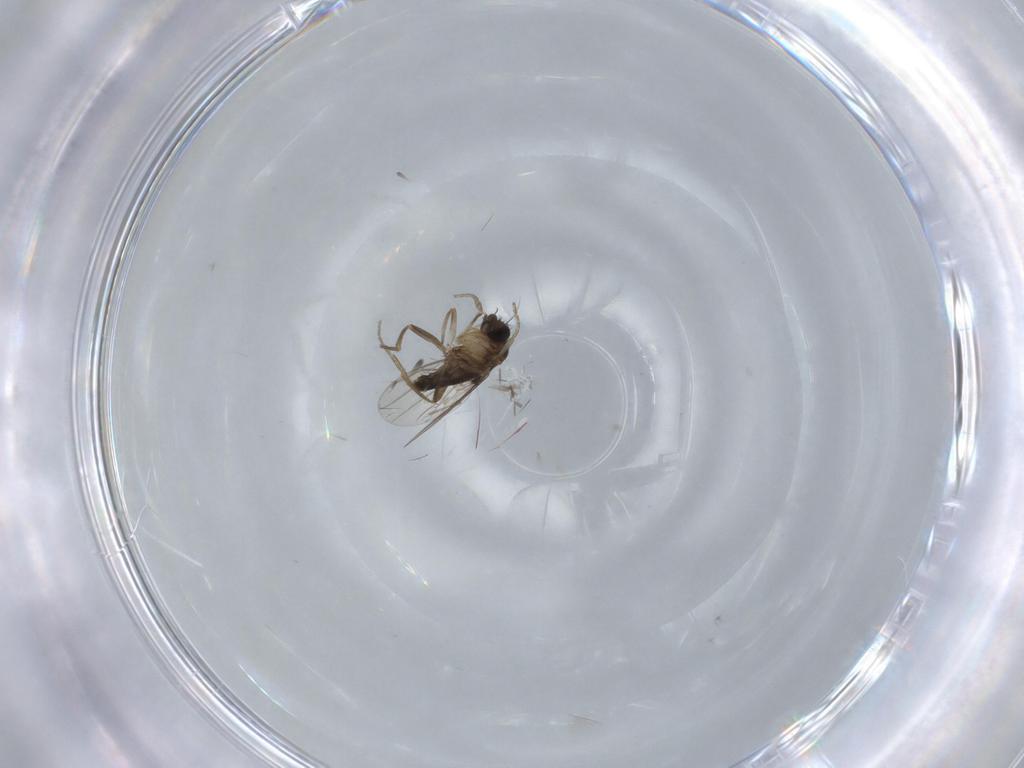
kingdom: Animalia
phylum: Arthropoda
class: Insecta
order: Diptera
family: Phoridae
